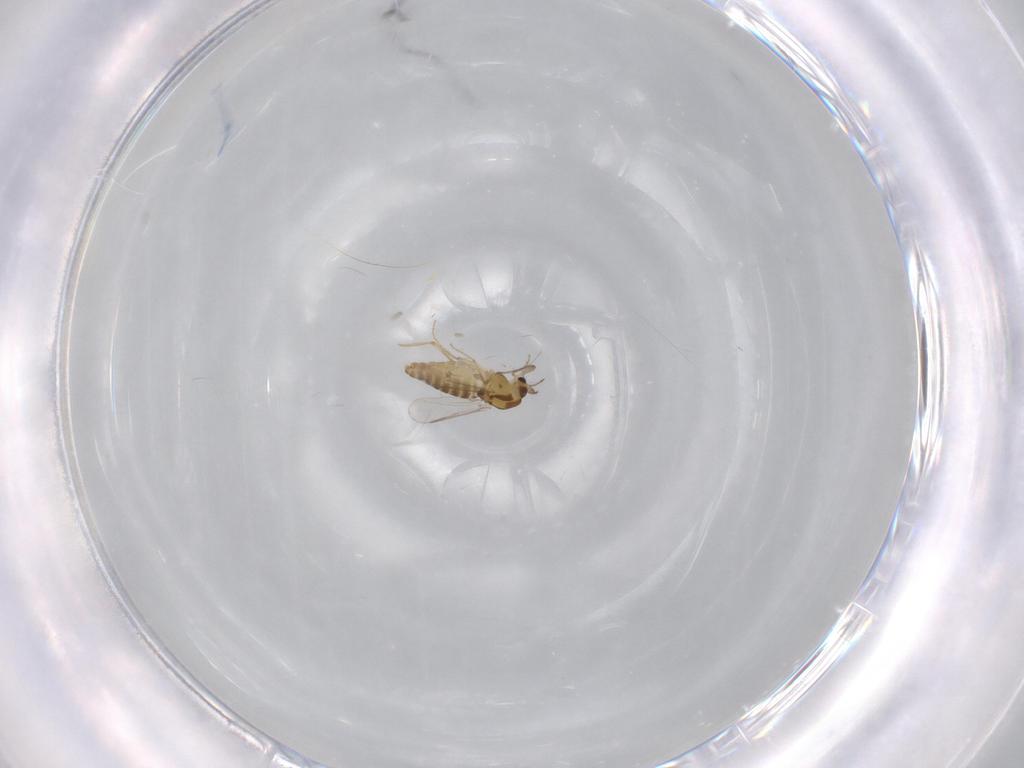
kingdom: Animalia
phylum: Arthropoda
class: Insecta
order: Diptera
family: Chironomidae
